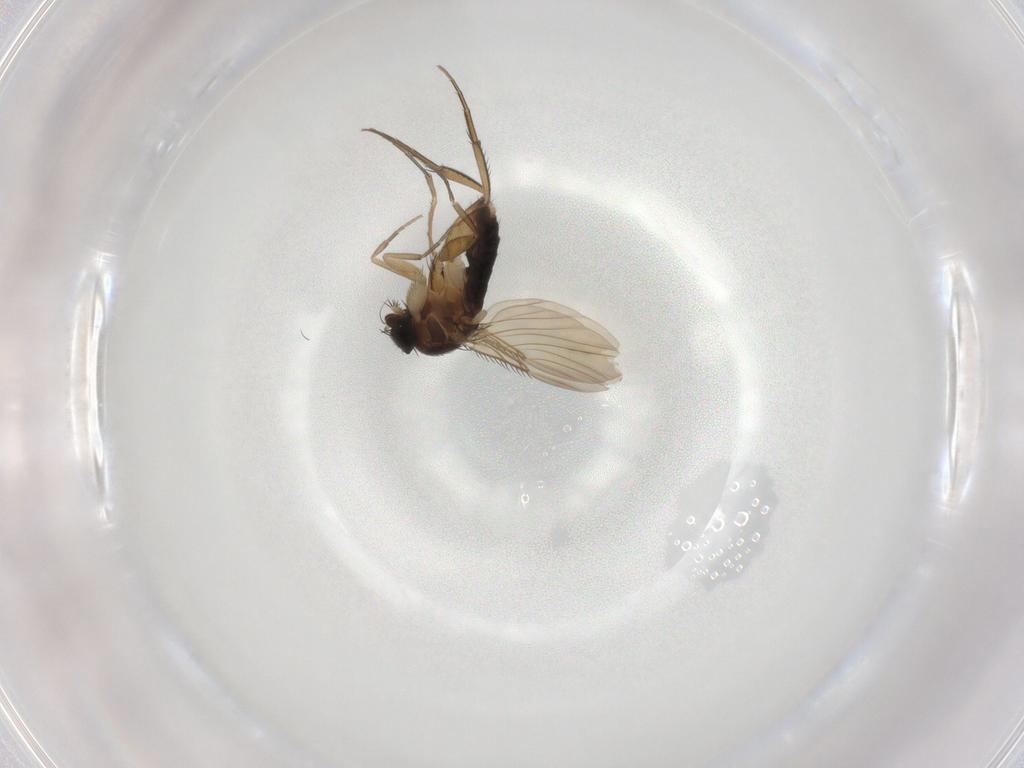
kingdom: Animalia
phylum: Arthropoda
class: Insecta
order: Diptera
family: Phoridae
